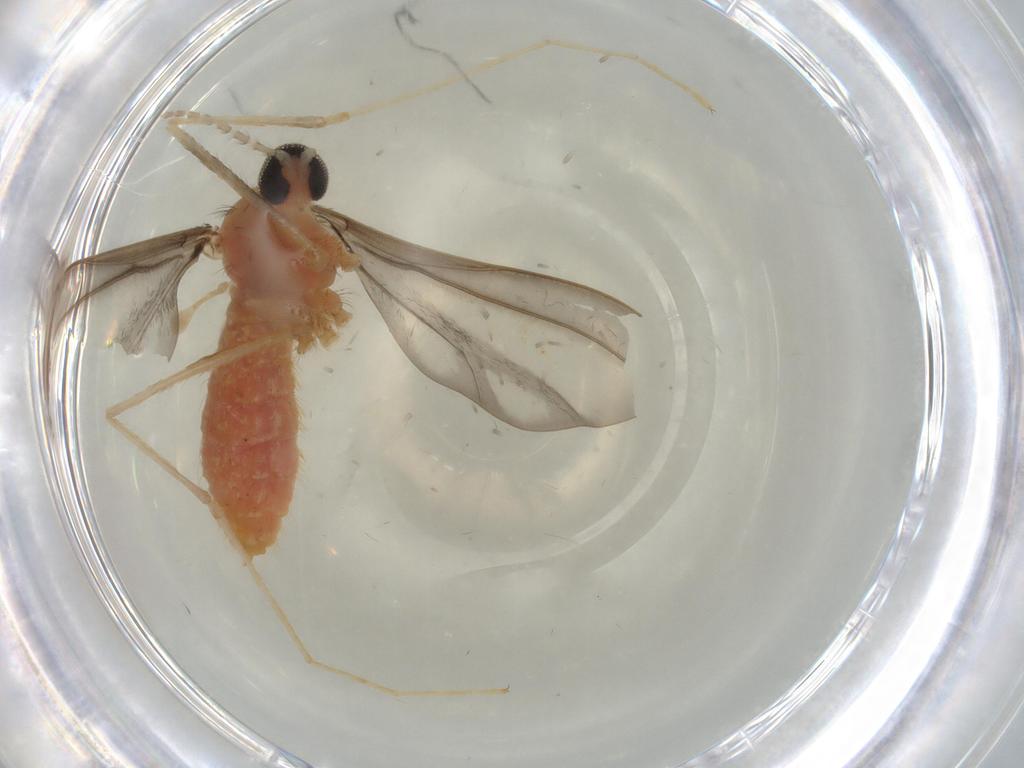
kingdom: Animalia
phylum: Arthropoda
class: Insecta
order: Diptera
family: Cecidomyiidae
